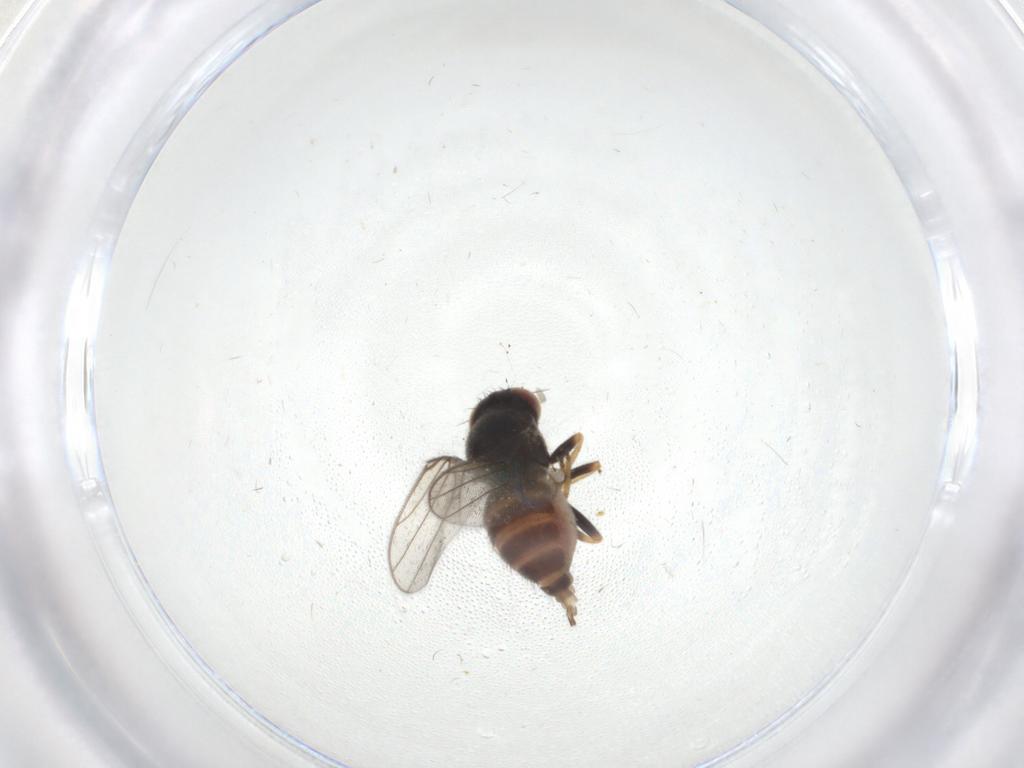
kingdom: Animalia
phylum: Arthropoda
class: Insecta
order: Diptera
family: Chloropidae
